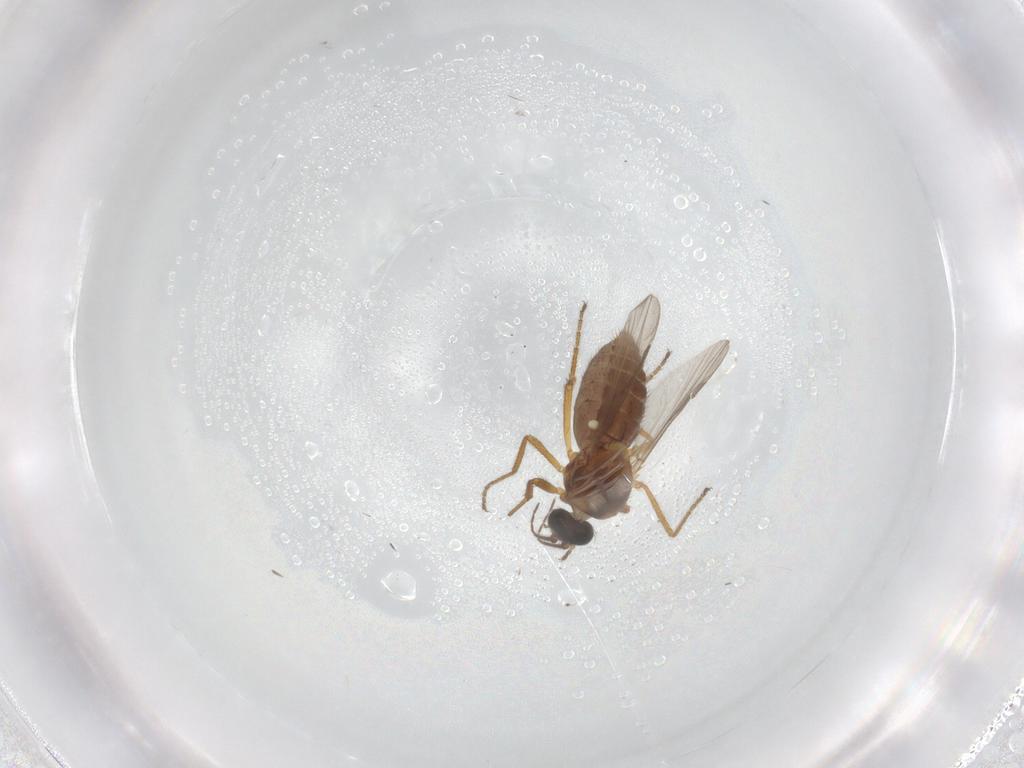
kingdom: Animalia
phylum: Arthropoda
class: Insecta
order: Diptera
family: Ceratopogonidae
